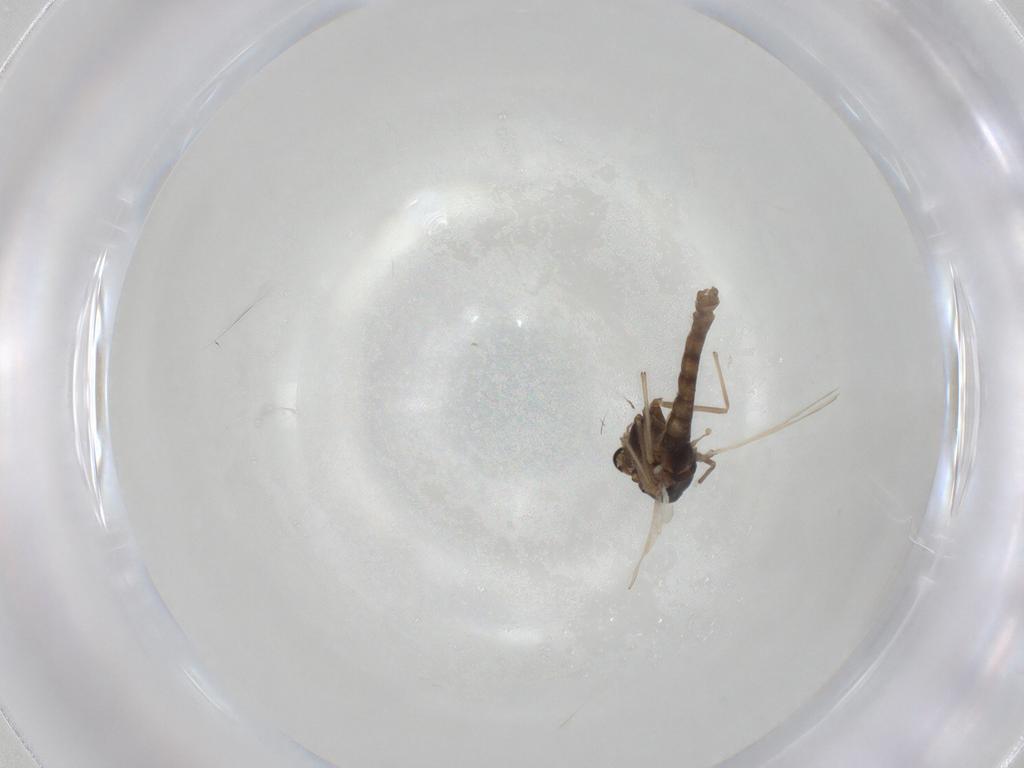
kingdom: Animalia
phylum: Arthropoda
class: Insecta
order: Diptera
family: Chironomidae
